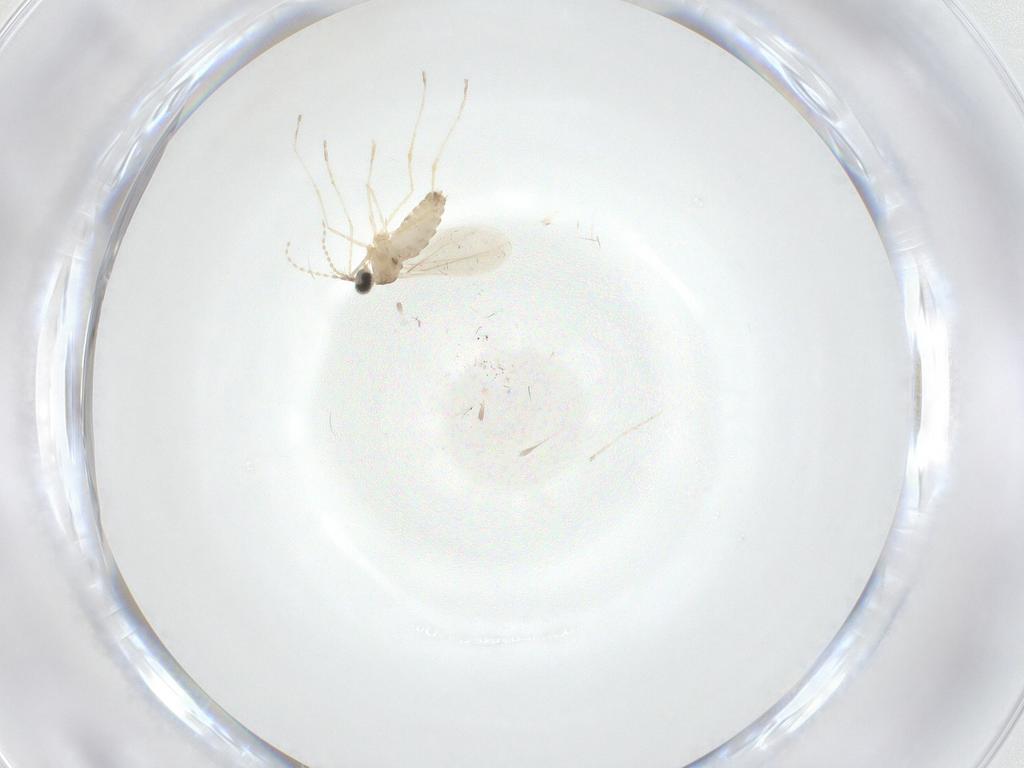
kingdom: Animalia
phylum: Arthropoda
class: Insecta
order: Diptera
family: Cecidomyiidae
